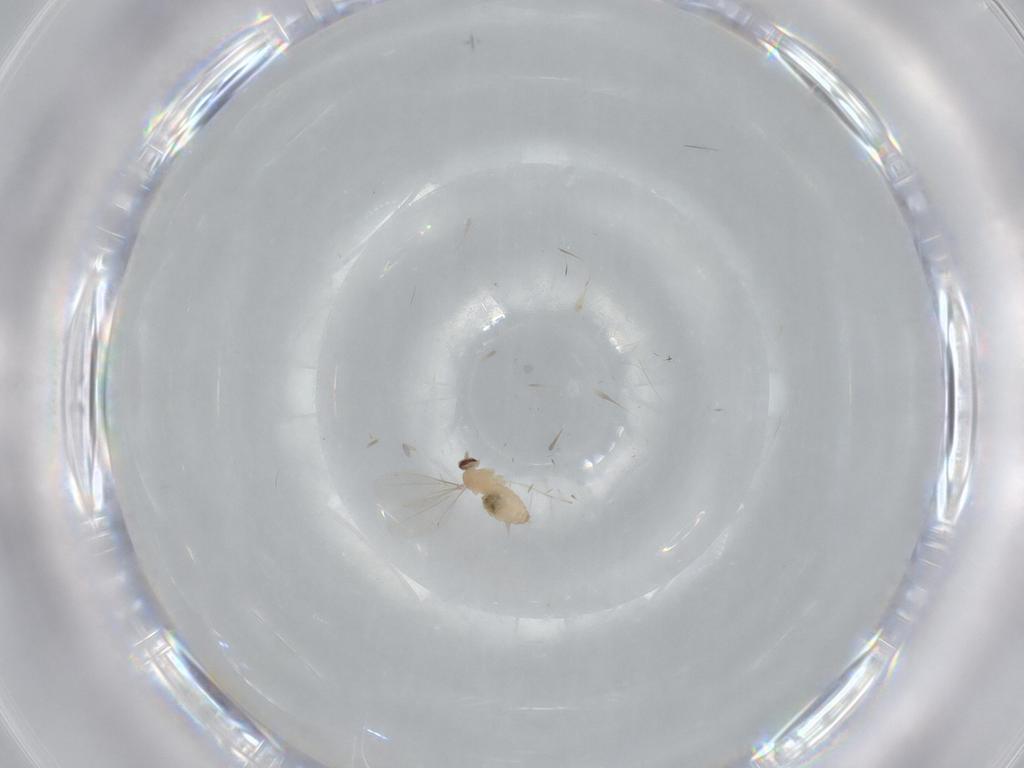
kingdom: Animalia
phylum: Arthropoda
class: Insecta
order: Diptera
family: Cecidomyiidae
